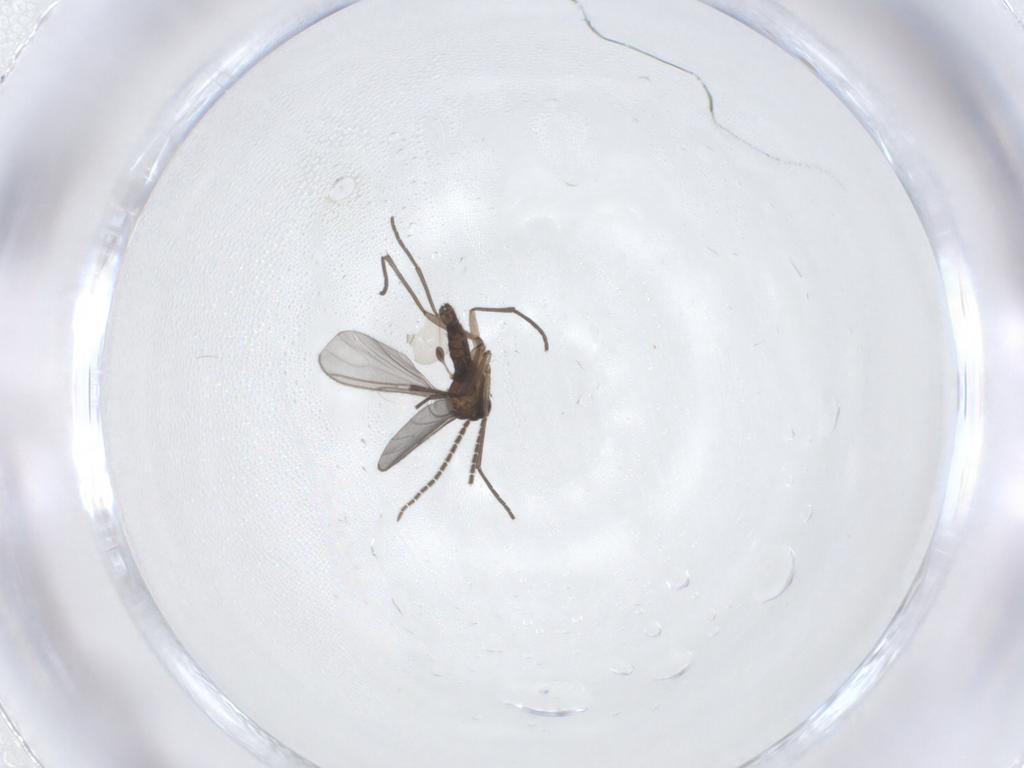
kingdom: Animalia
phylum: Arthropoda
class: Insecta
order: Diptera
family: Sciaridae
